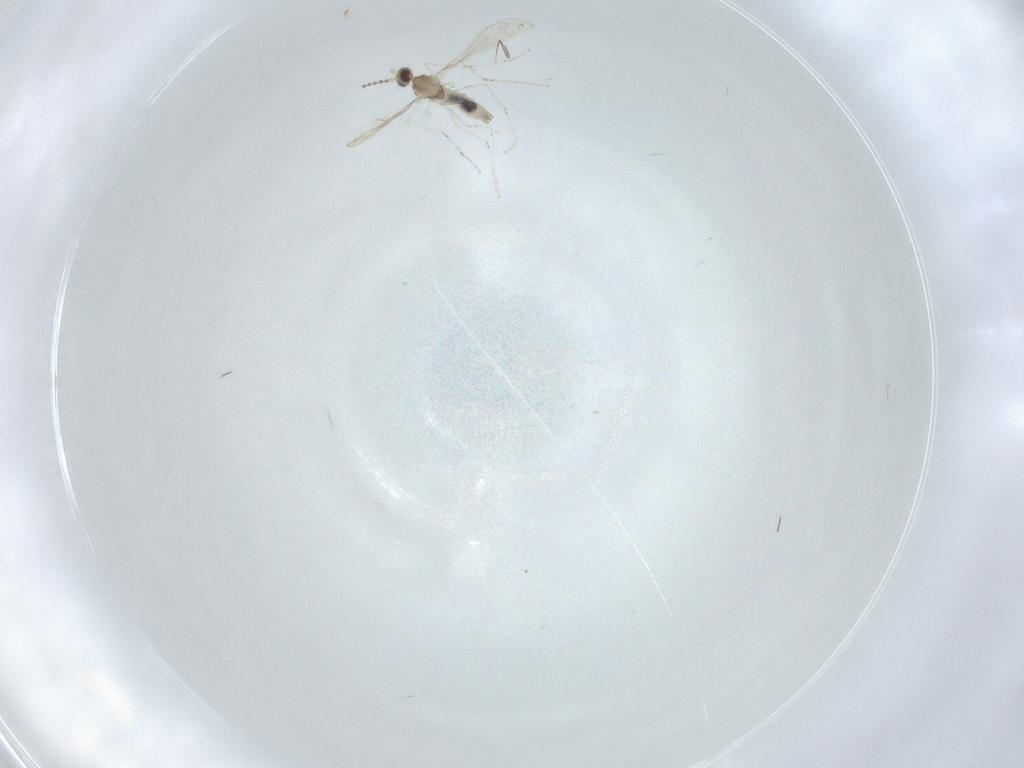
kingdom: Animalia
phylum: Arthropoda
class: Insecta
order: Diptera
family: Cecidomyiidae
